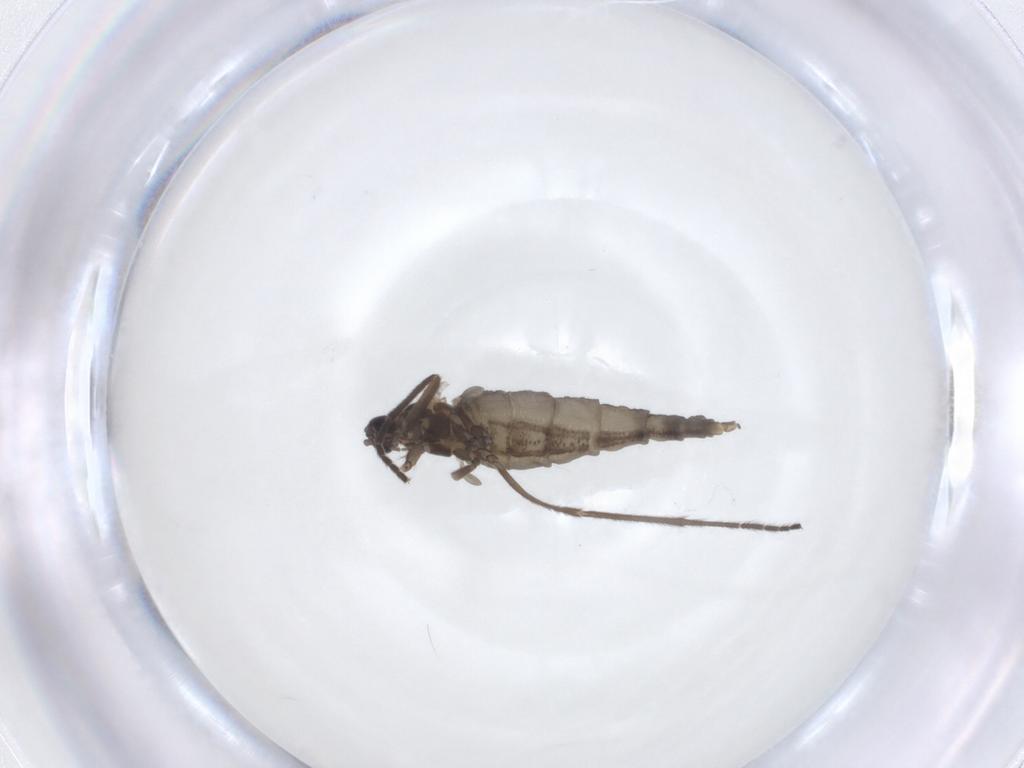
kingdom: Animalia
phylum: Arthropoda
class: Insecta
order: Diptera
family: Cecidomyiidae
